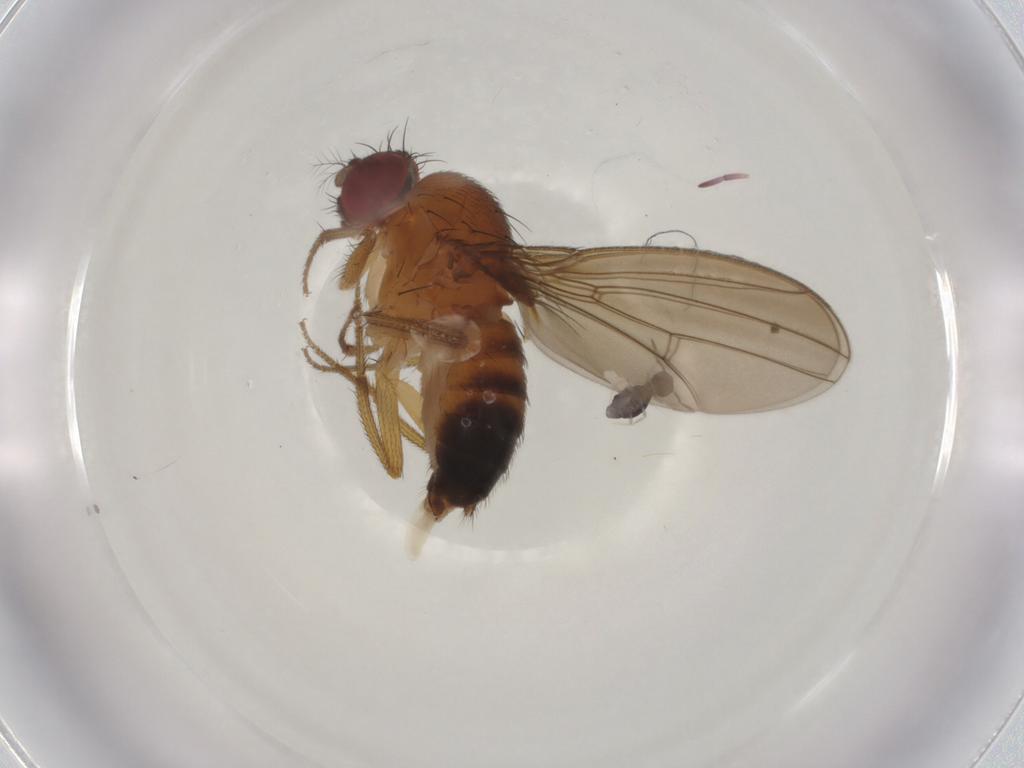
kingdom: Animalia
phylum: Arthropoda
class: Insecta
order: Diptera
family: Drosophilidae
